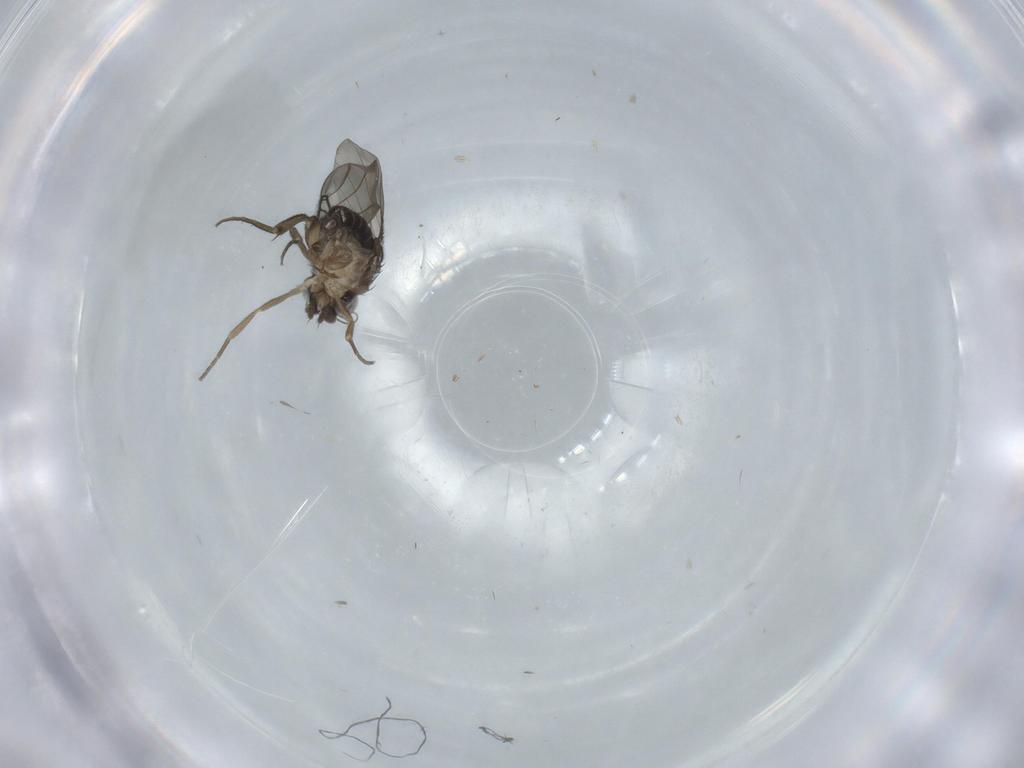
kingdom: Animalia
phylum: Arthropoda
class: Insecta
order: Diptera
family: Phoridae
